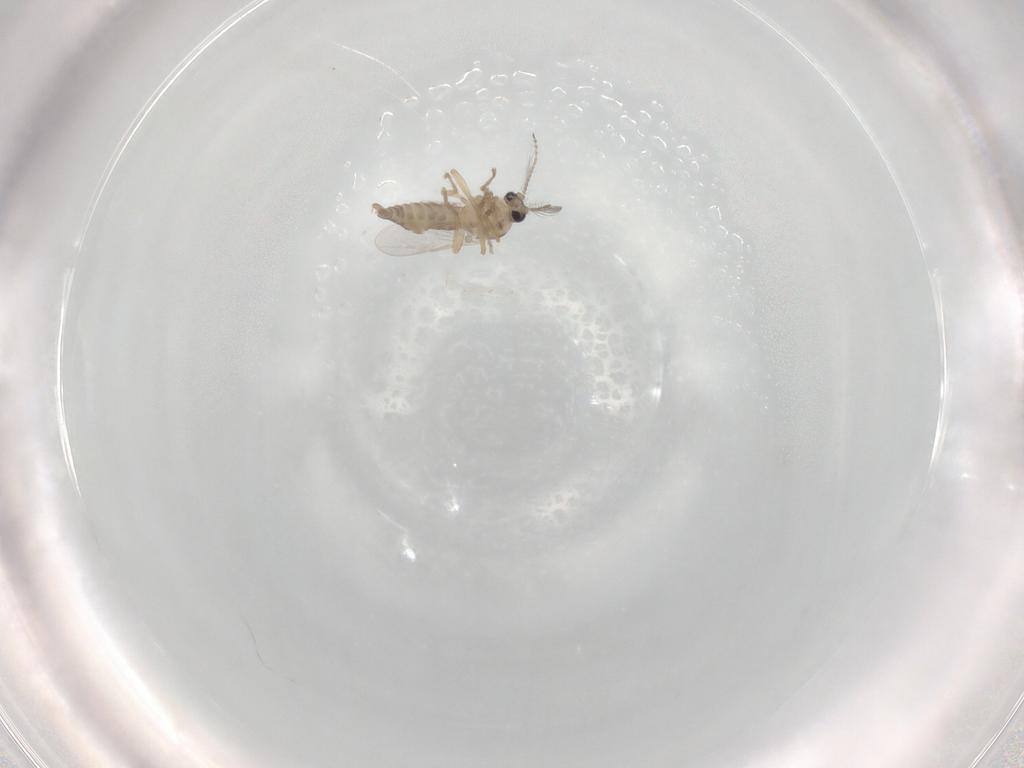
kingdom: Animalia
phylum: Arthropoda
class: Insecta
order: Diptera
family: Ceratopogonidae
